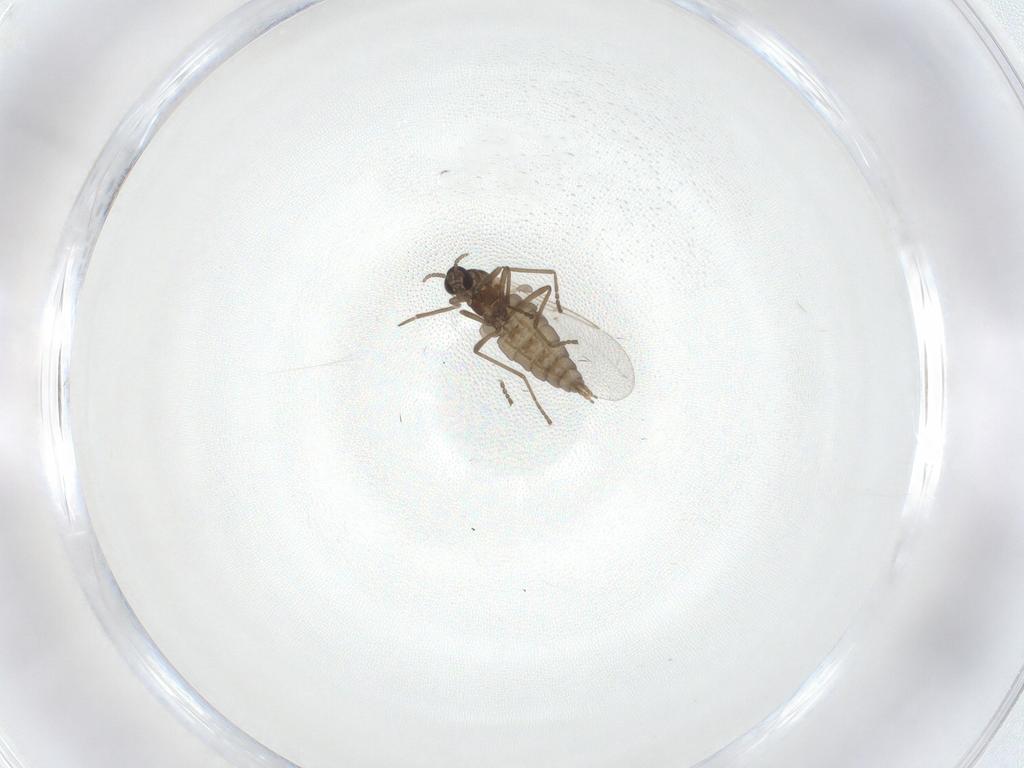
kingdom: Animalia
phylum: Arthropoda
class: Insecta
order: Diptera
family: Cecidomyiidae
